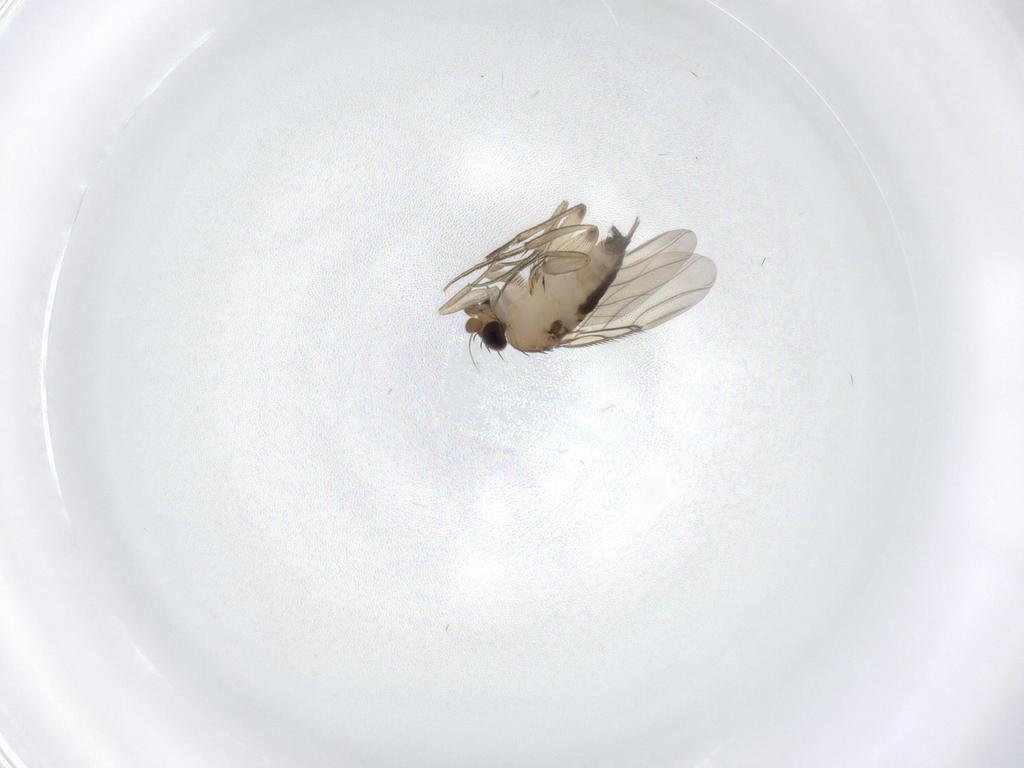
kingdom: Animalia
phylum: Arthropoda
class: Insecta
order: Diptera
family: Phoridae
